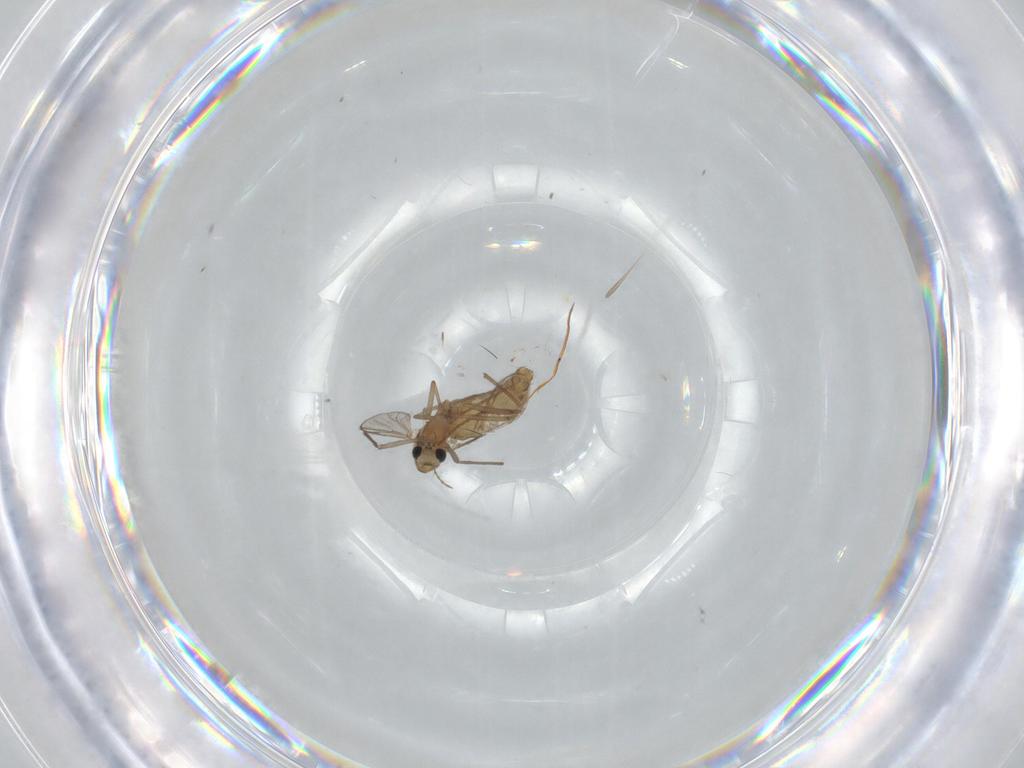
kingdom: Animalia
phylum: Arthropoda
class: Insecta
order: Diptera
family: Chironomidae
